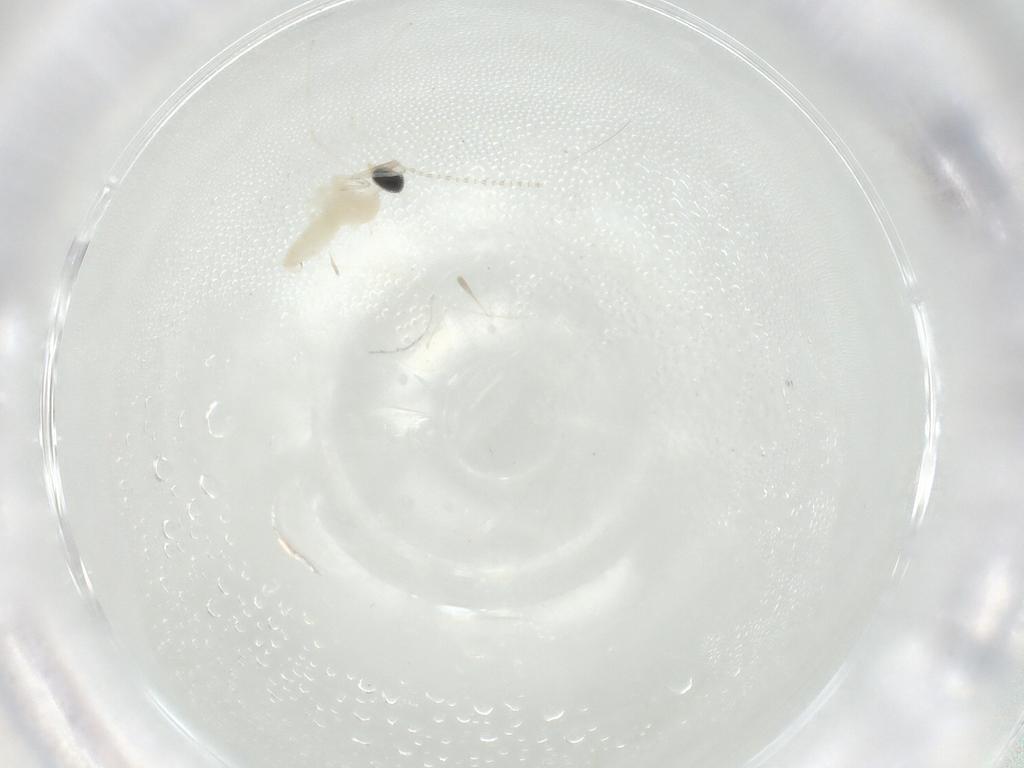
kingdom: Animalia
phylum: Arthropoda
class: Insecta
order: Diptera
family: Cecidomyiidae
